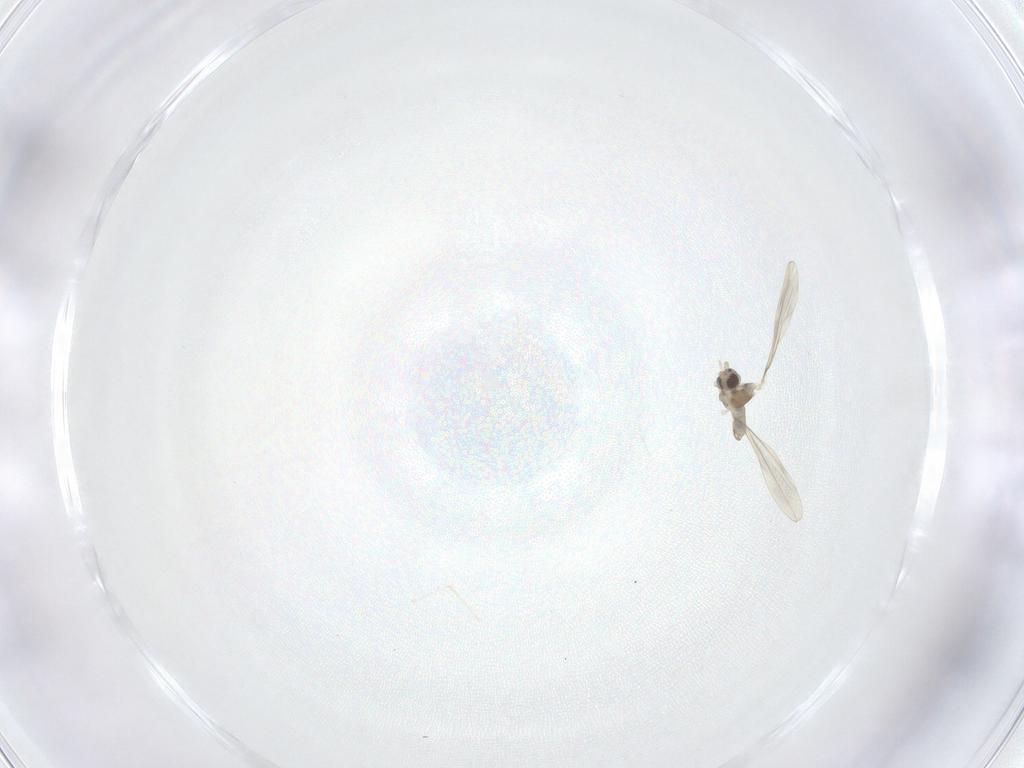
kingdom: Animalia
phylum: Arthropoda
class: Insecta
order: Diptera
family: Cecidomyiidae
